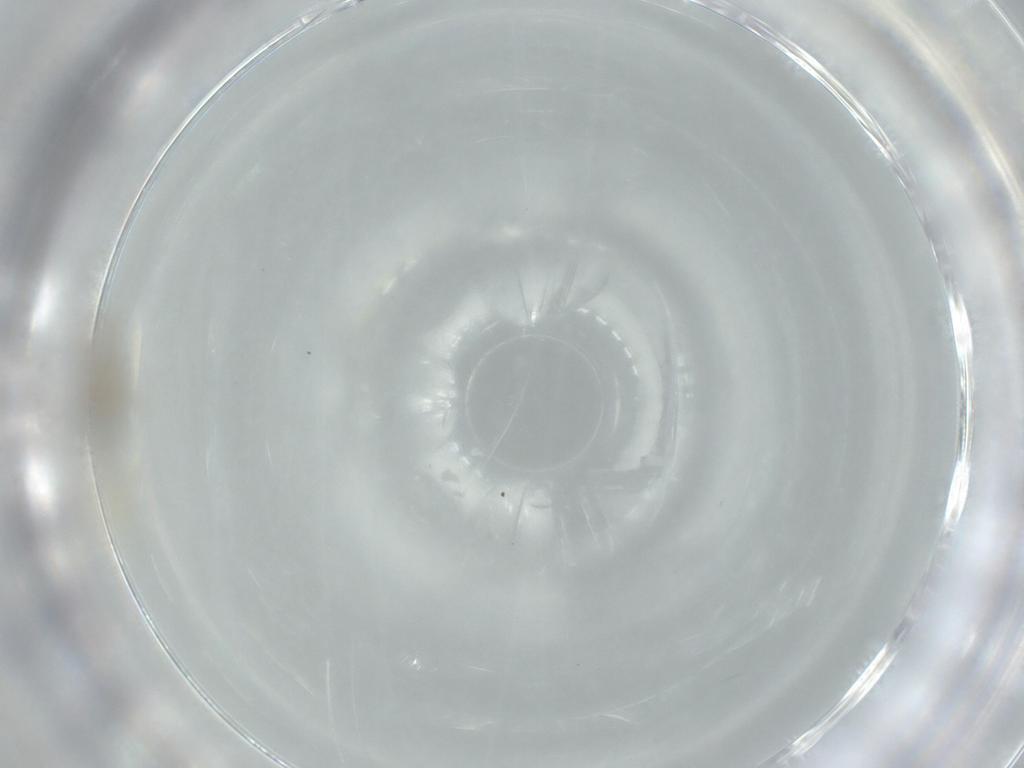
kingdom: Animalia
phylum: Arthropoda
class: Insecta
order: Diptera
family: Cecidomyiidae
